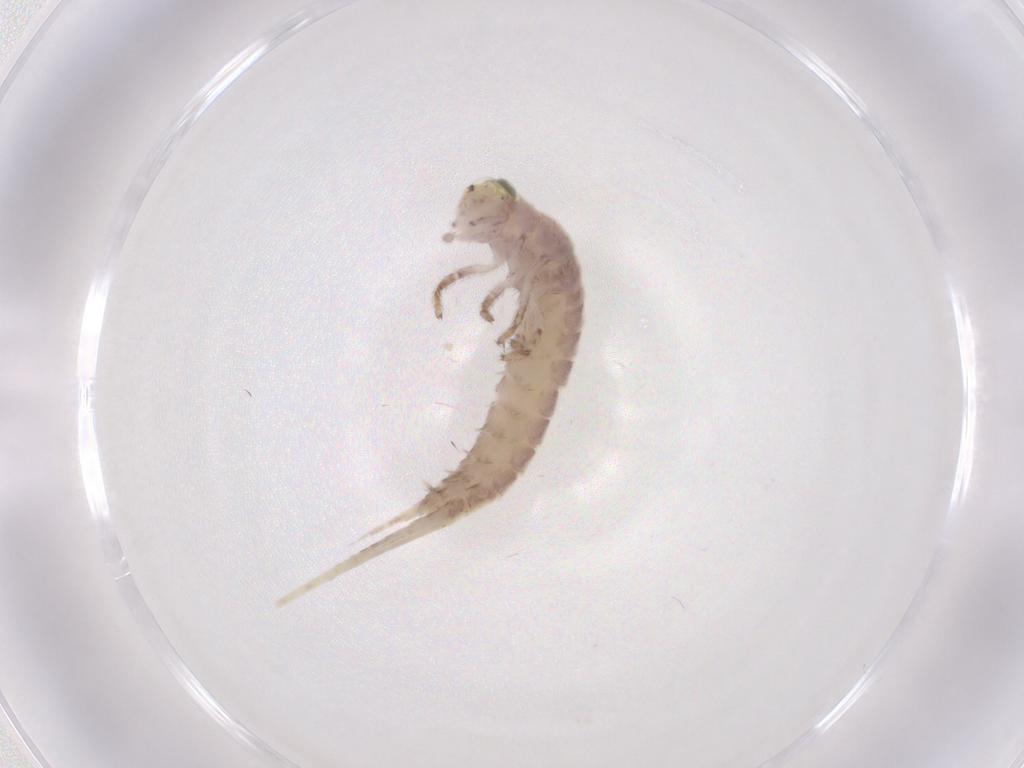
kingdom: Animalia
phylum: Arthropoda
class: Insecta
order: Archaeognatha
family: Machilidae
